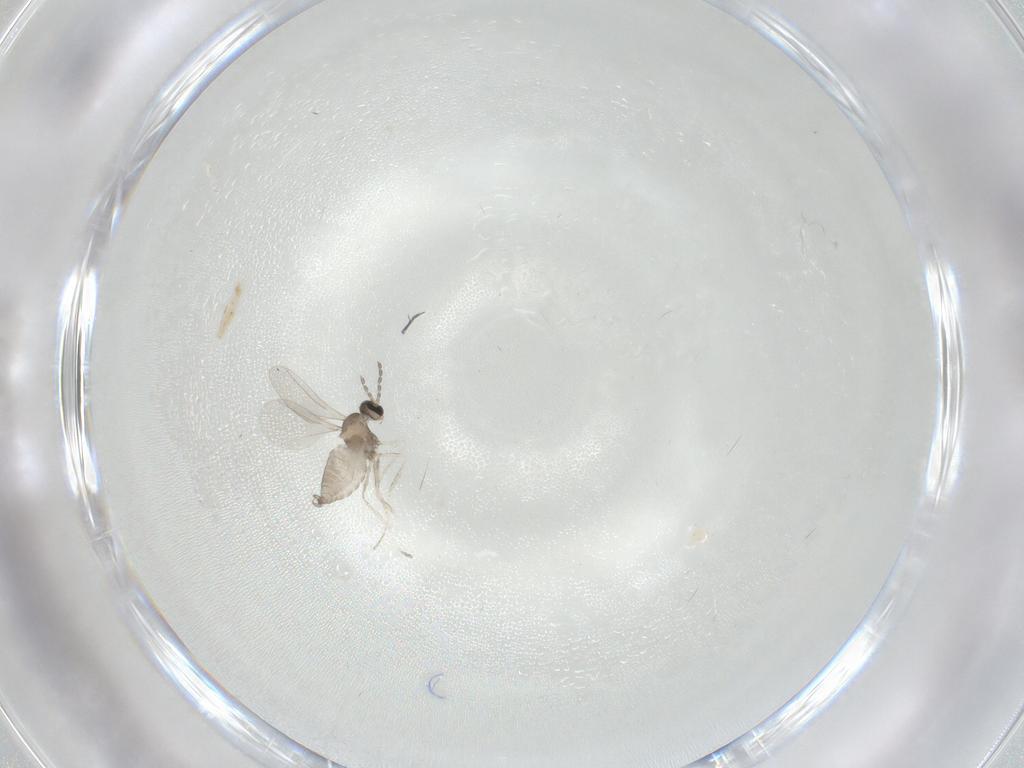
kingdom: Animalia
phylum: Arthropoda
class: Insecta
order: Diptera
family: Cecidomyiidae
